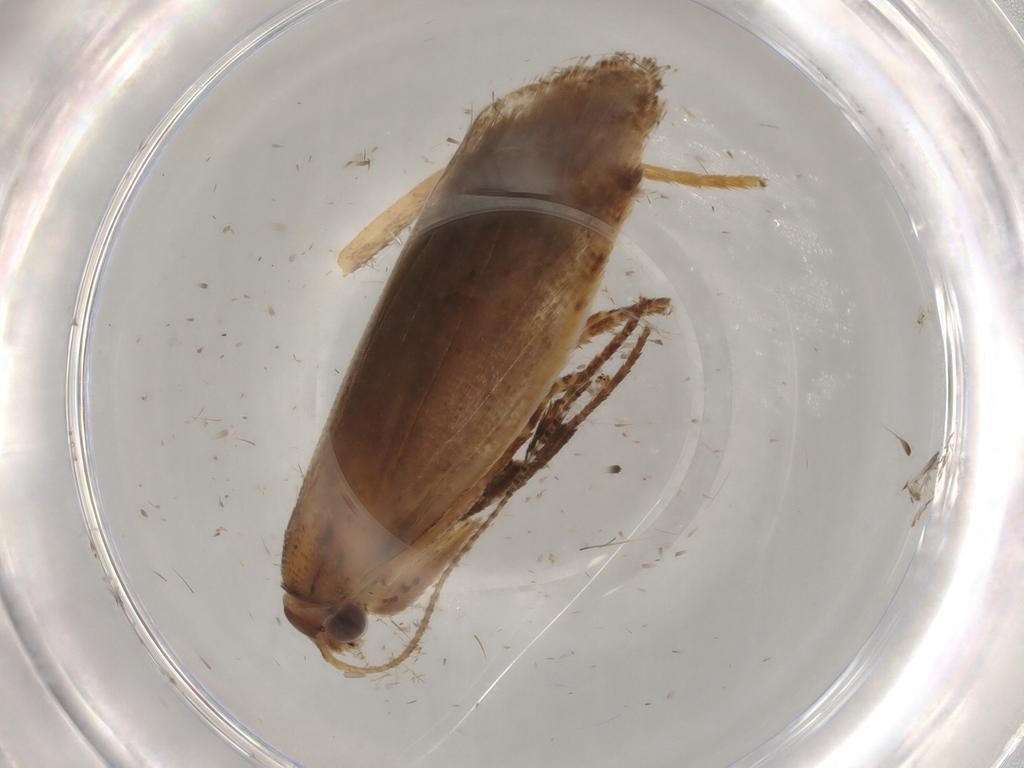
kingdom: Animalia
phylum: Arthropoda
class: Insecta
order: Lepidoptera
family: Gelechiidae
